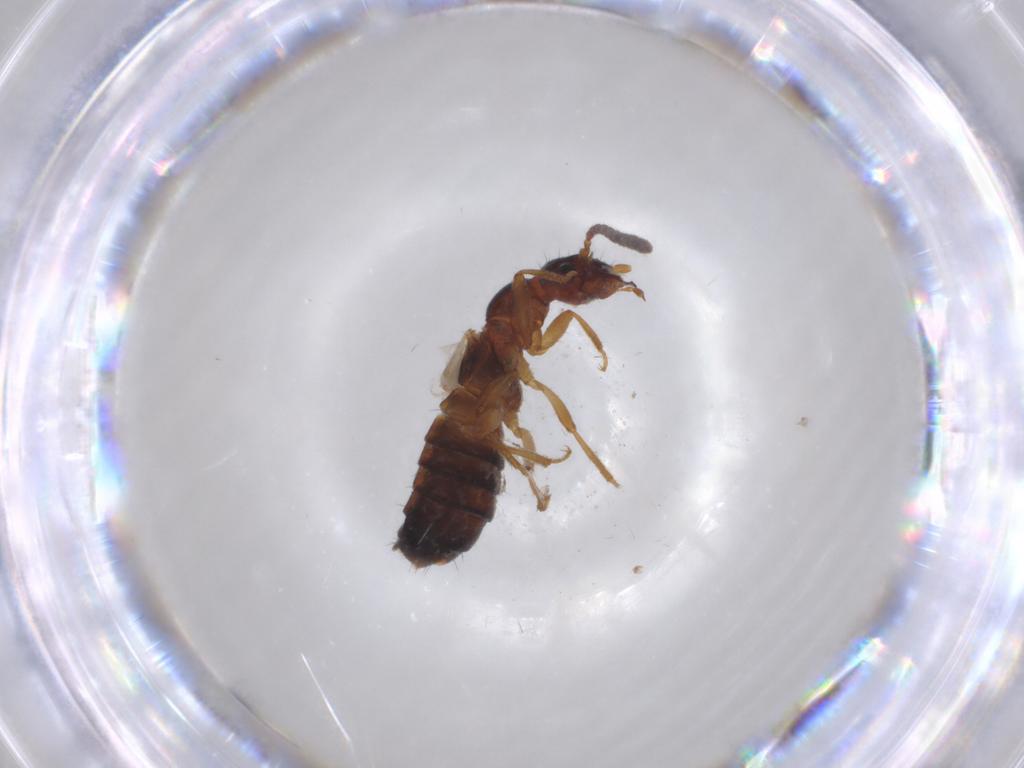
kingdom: Animalia
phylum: Arthropoda
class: Insecta
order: Coleoptera
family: Staphylinidae
